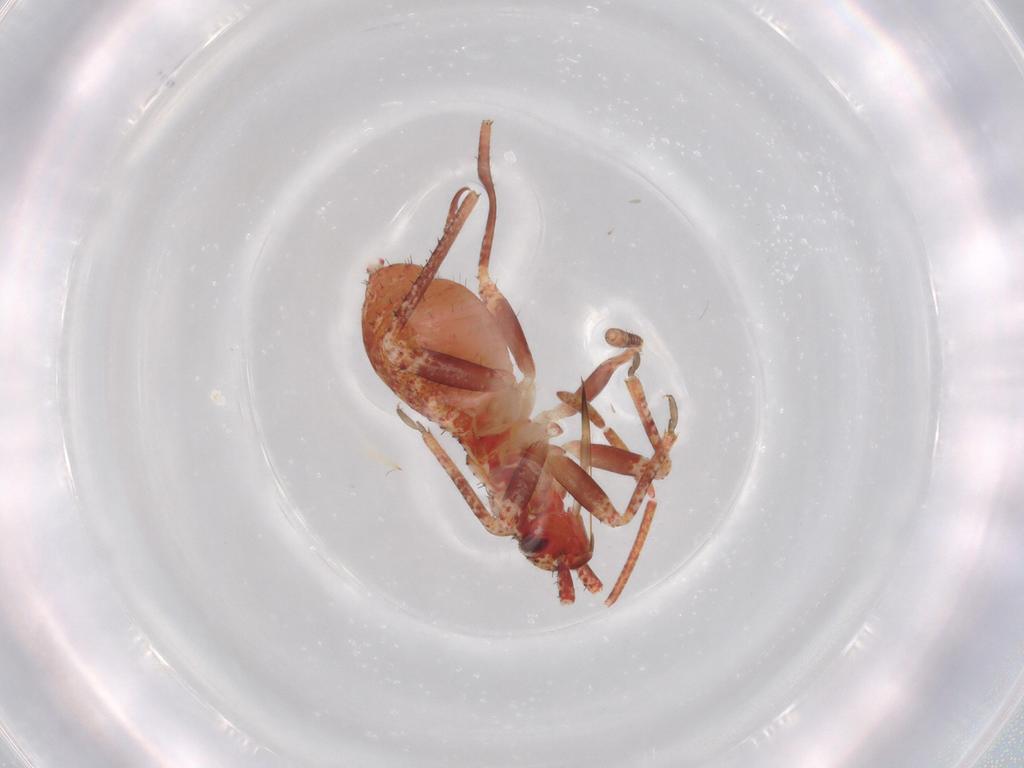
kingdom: Animalia
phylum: Arthropoda
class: Insecta
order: Hemiptera
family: Miridae
